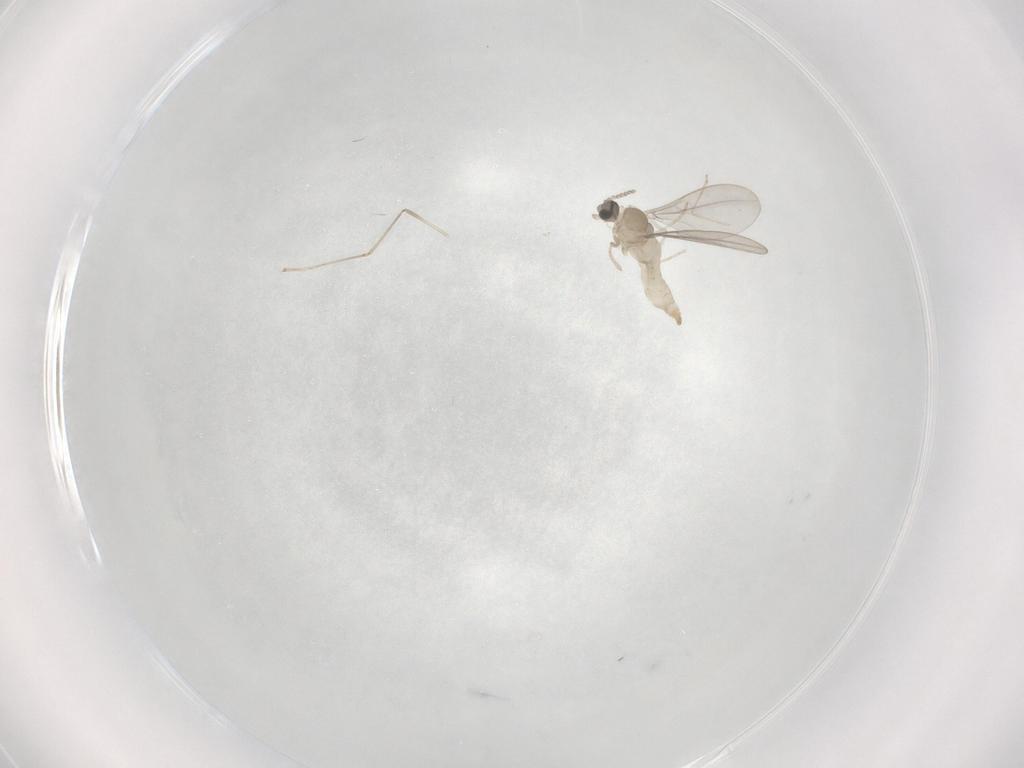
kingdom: Animalia
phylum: Arthropoda
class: Insecta
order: Diptera
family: Cecidomyiidae
